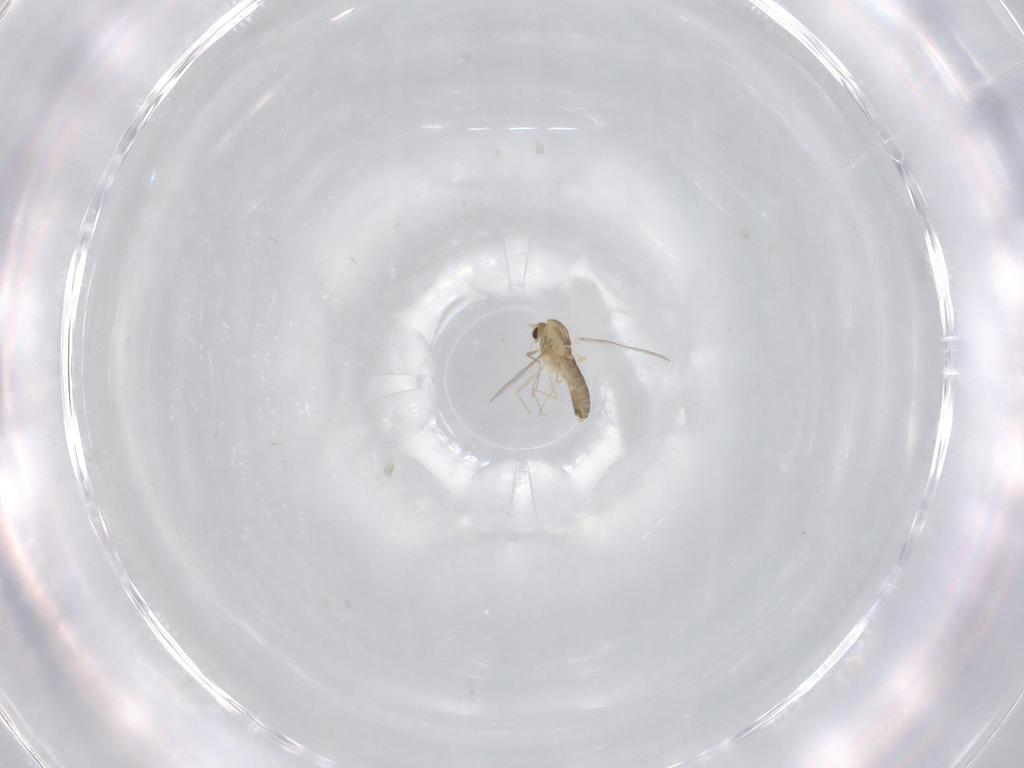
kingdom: Animalia
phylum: Arthropoda
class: Insecta
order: Diptera
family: Chironomidae
